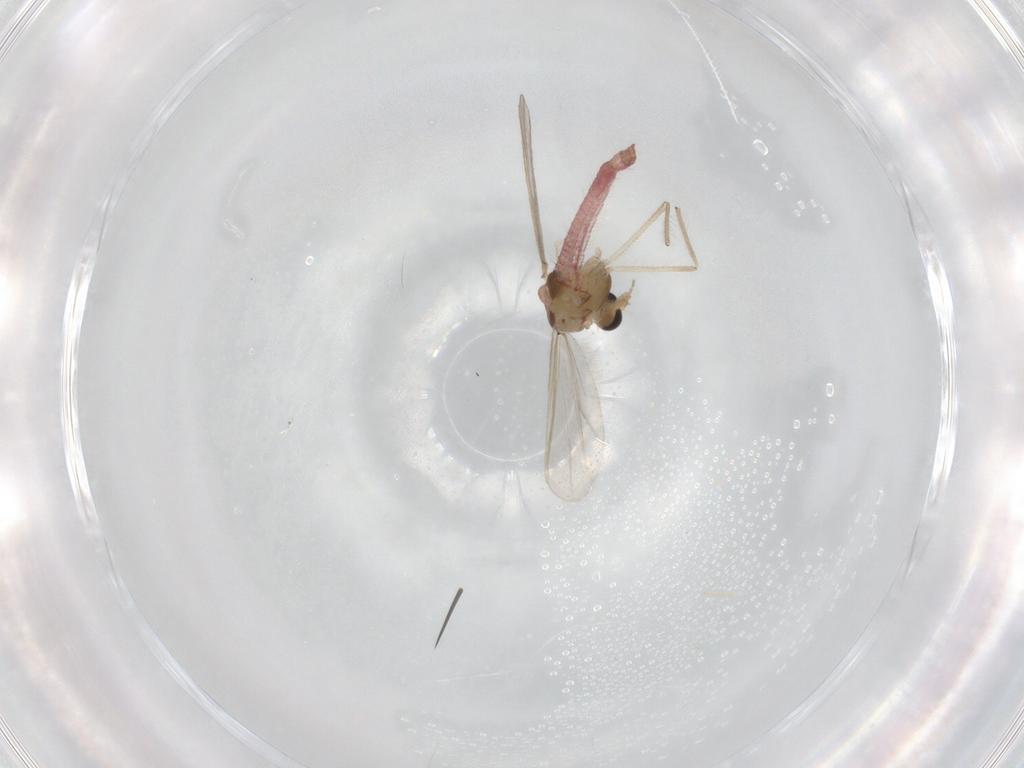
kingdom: Animalia
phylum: Arthropoda
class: Insecta
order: Diptera
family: Chironomidae
